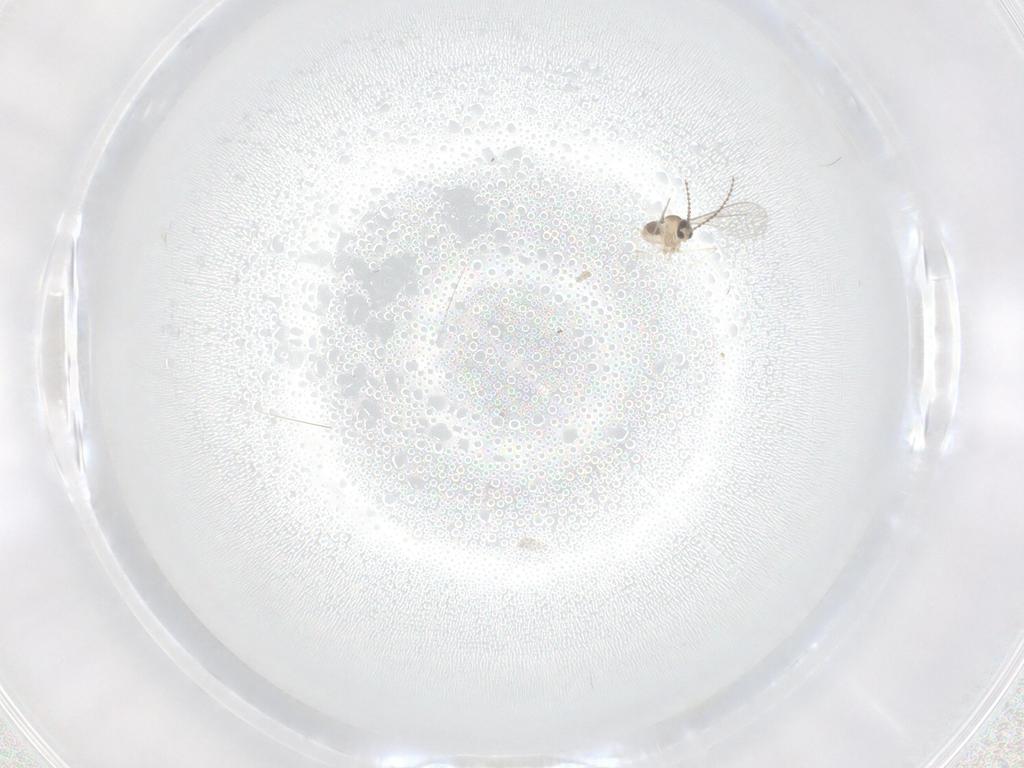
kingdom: Animalia
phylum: Arthropoda
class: Insecta
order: Diptera
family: Cecidomyiidae
